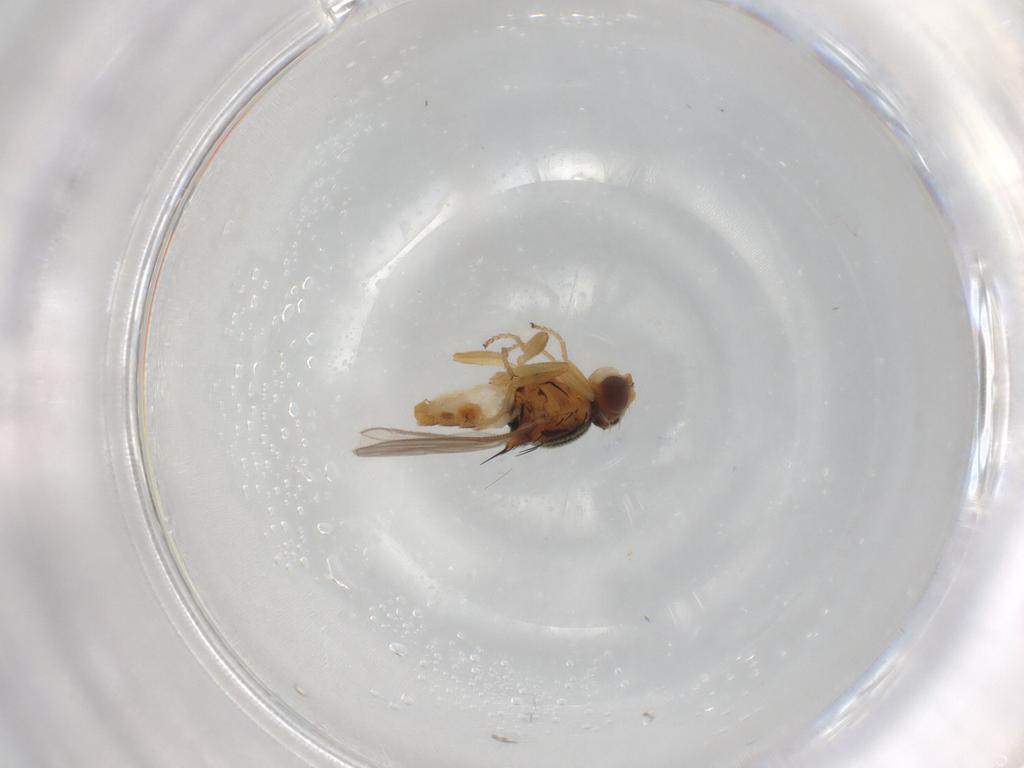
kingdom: Animalia
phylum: Arthropoda
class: Insecta
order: Diptera
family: Chloropidae
